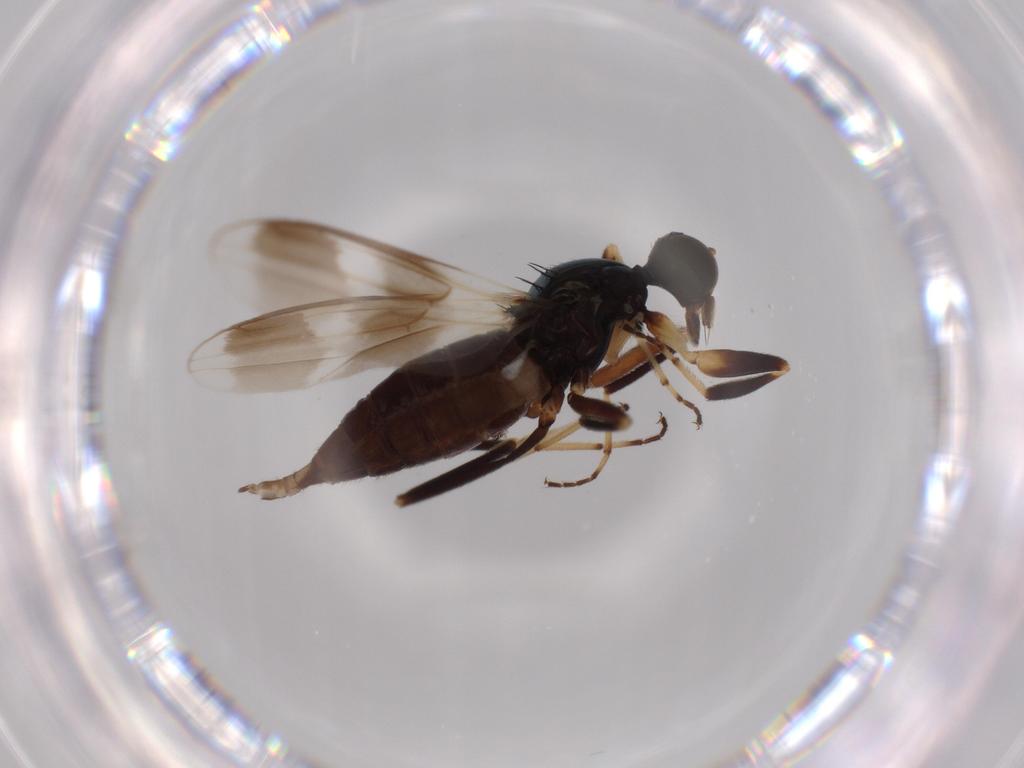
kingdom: Animalia
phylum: Arthropoda
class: Insecta
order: Diptera
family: Hybotidae
